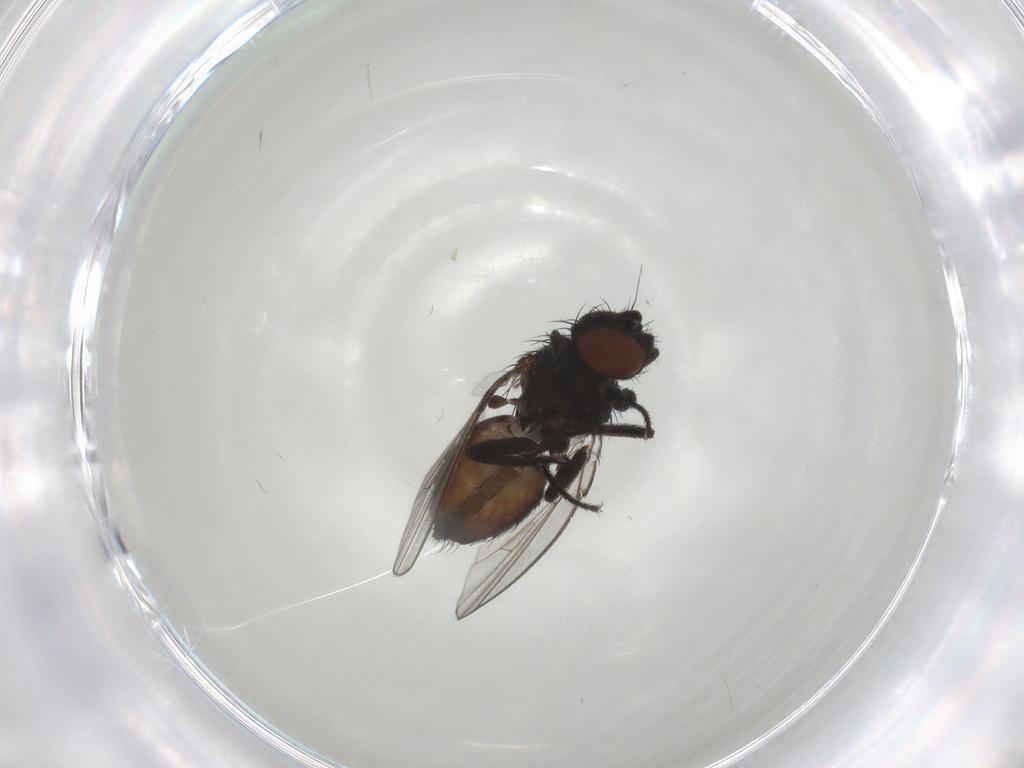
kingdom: Animalia
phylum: Arthropoda
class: Insecta
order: Diptera
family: Milichiidae
